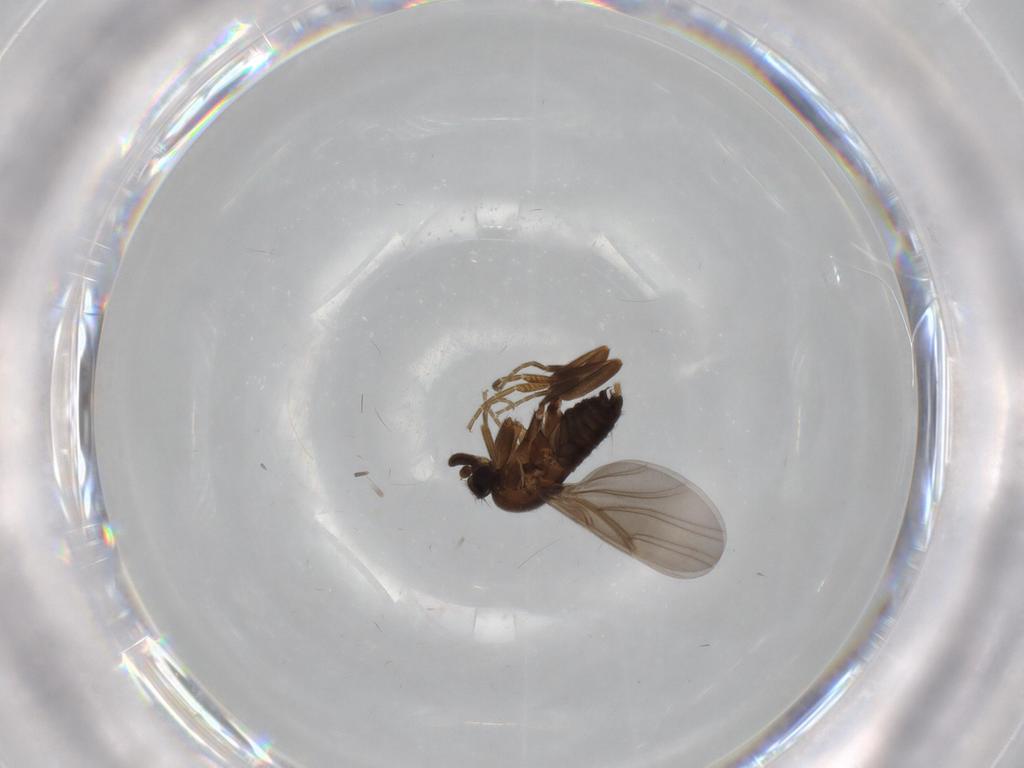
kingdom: Animalia
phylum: Arthropoda
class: Insecta
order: Diptera
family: Phoridae
